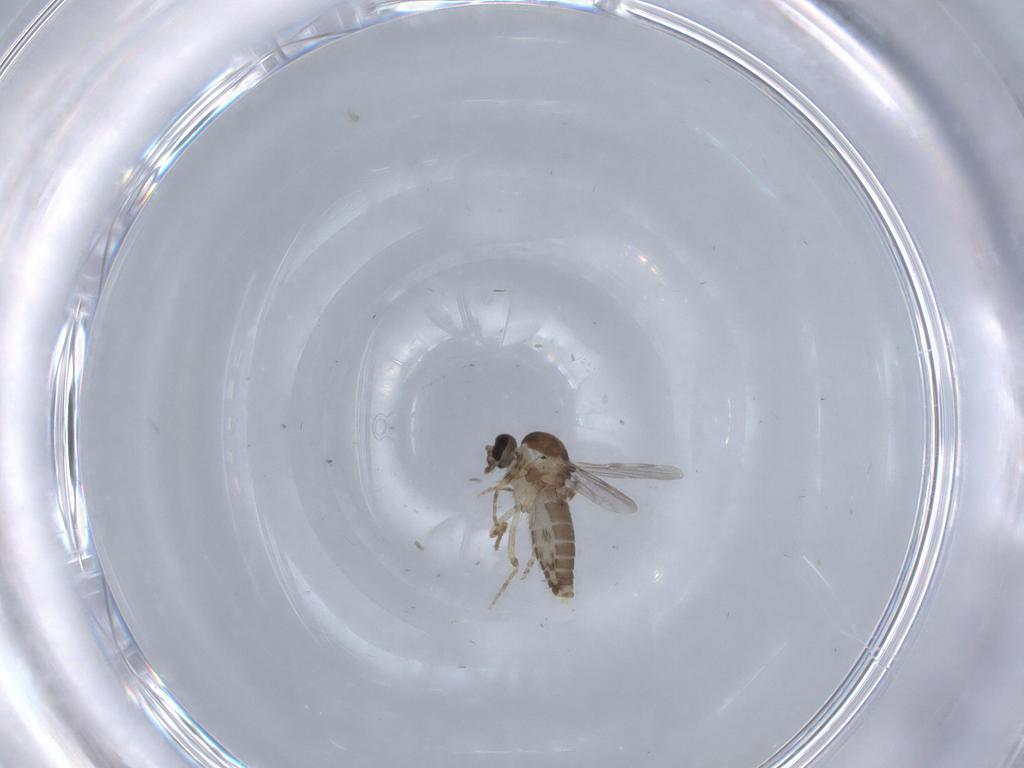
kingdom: Animalia
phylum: Arthropoda
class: Insecta
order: Diptera
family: Ceratopogonidae
